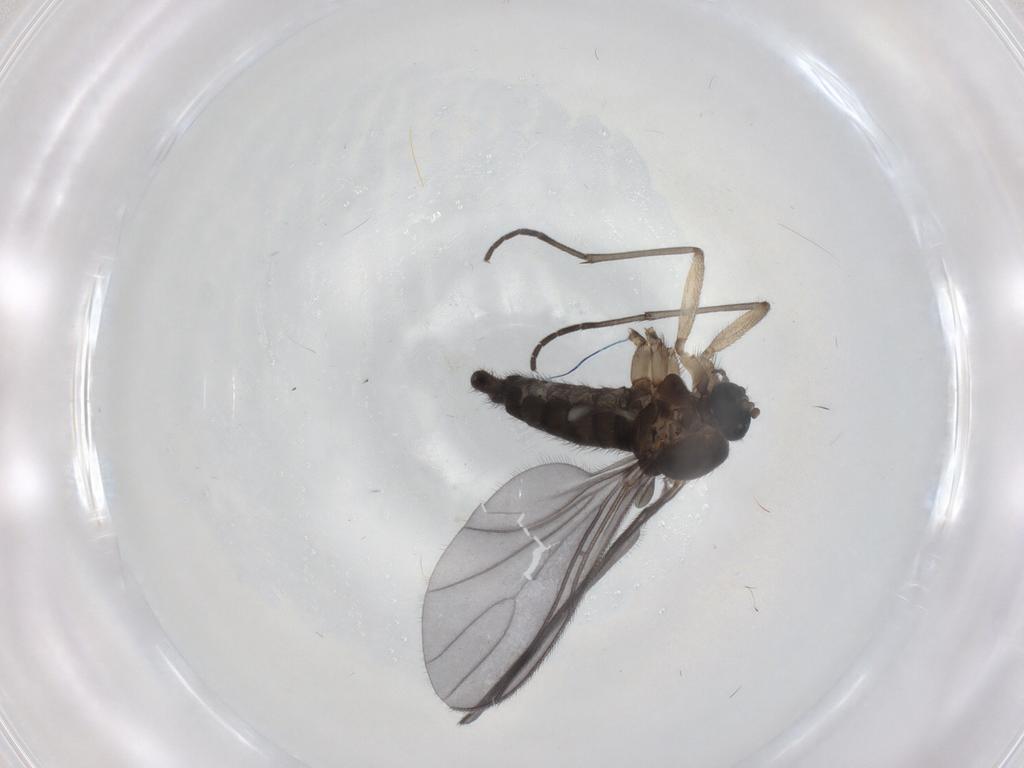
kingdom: Animalia
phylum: Arthropoda
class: Insecta
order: Diptera
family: Sciaridae
